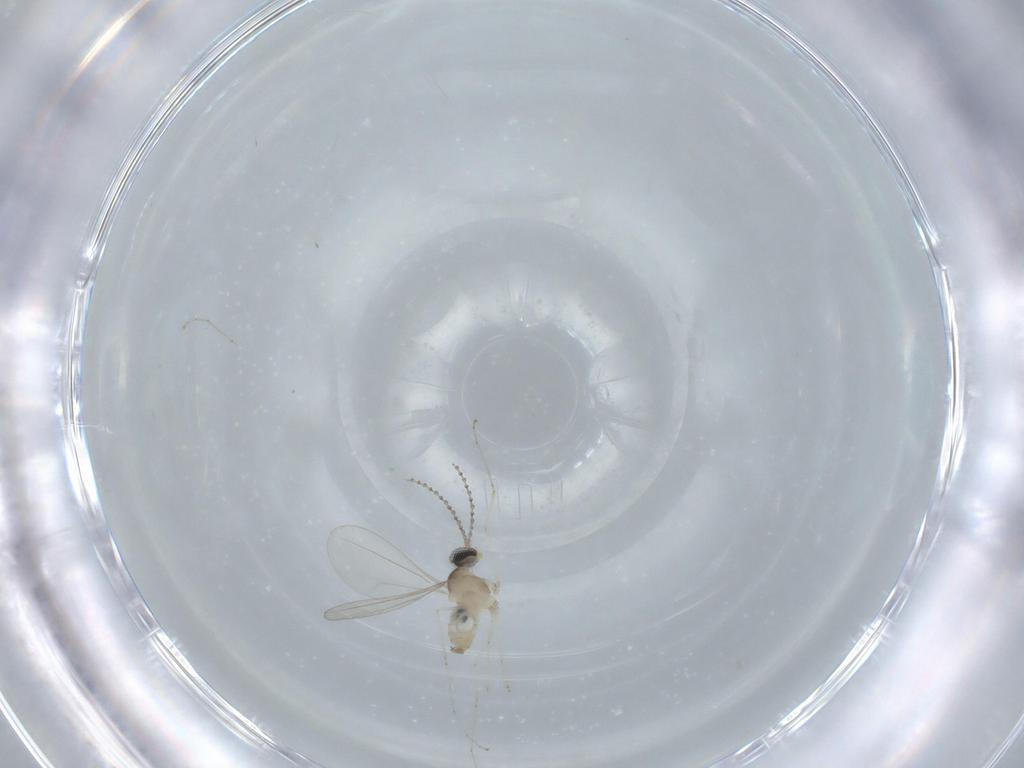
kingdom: Animalia
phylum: Arthropoda
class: Insecta
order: Diptera
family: Cecidomyiidae
